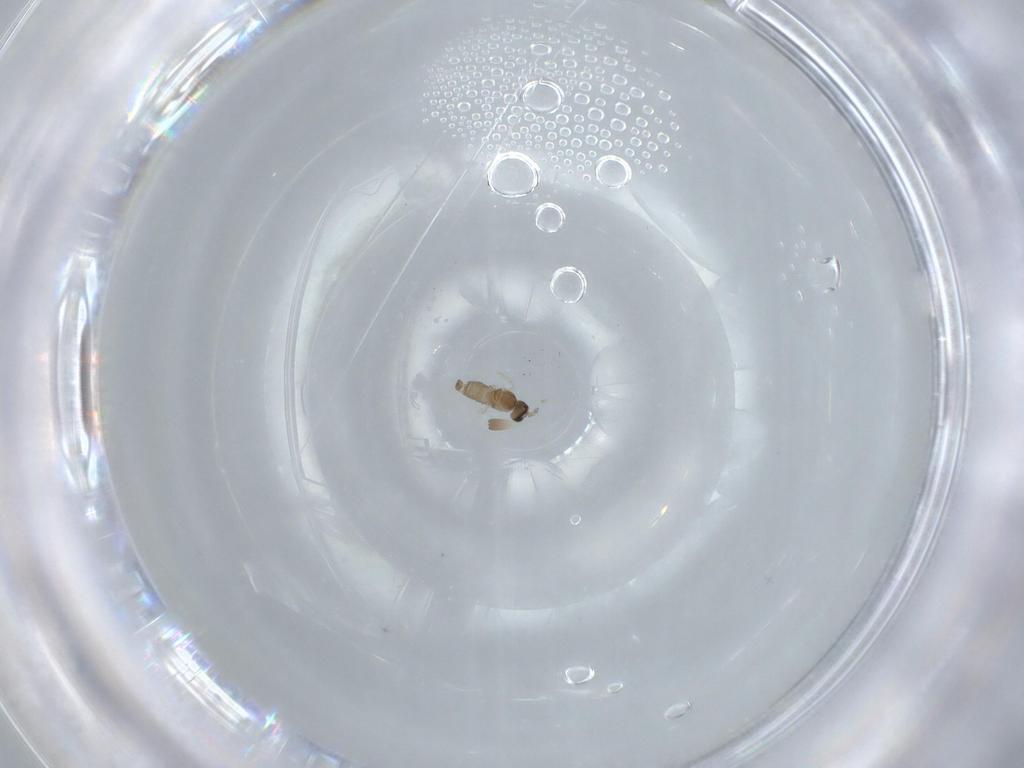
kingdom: Animalia
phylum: Arthropoda
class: Insecta
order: Diptera
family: Cecidomyiidae
